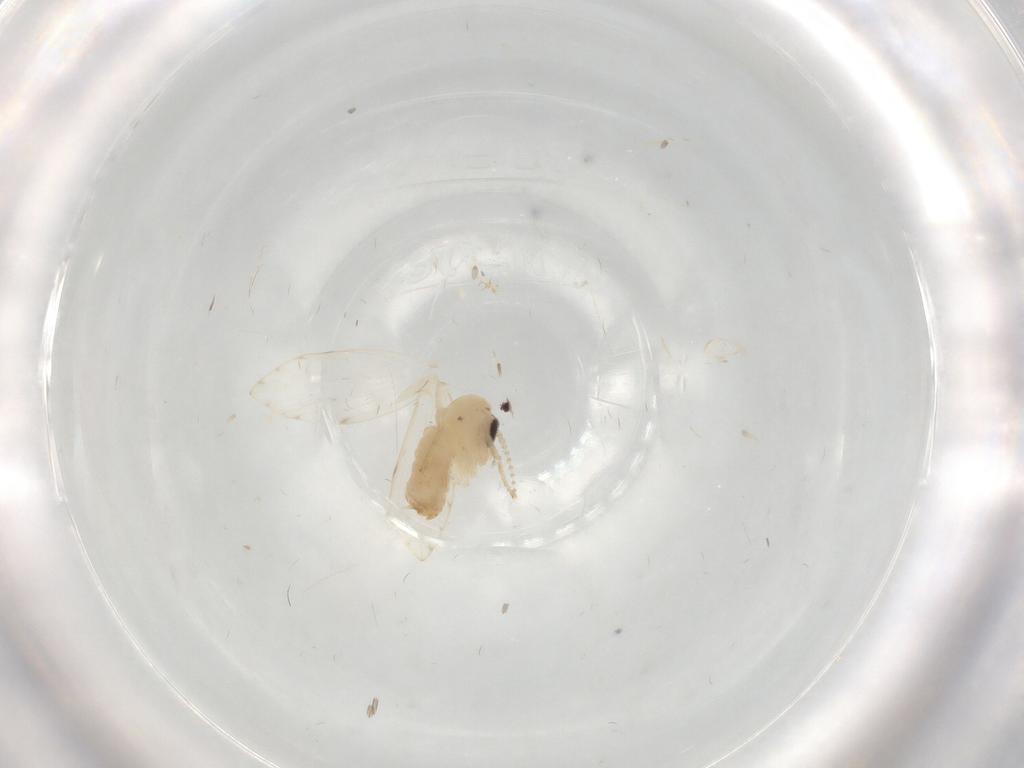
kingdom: Animalia
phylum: Arthropoda
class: Insecta
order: Diptera
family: Psychodidae
